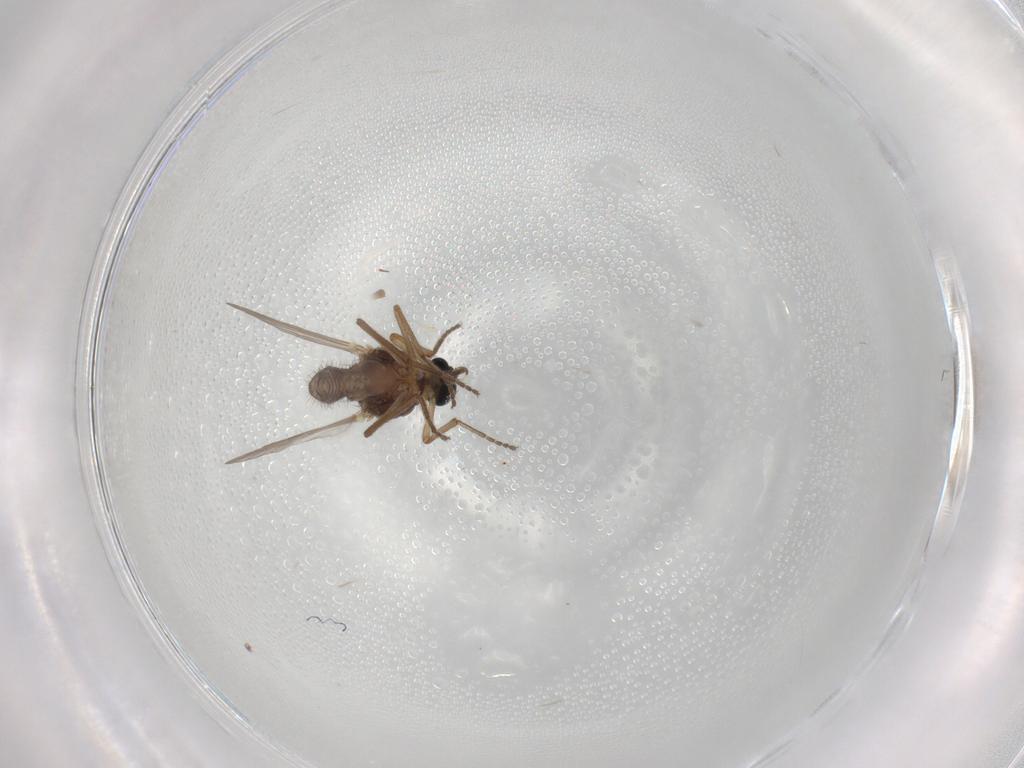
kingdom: Animalia
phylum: Arthropoda
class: Insecta
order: Diptera
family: Ceratopogonidae
